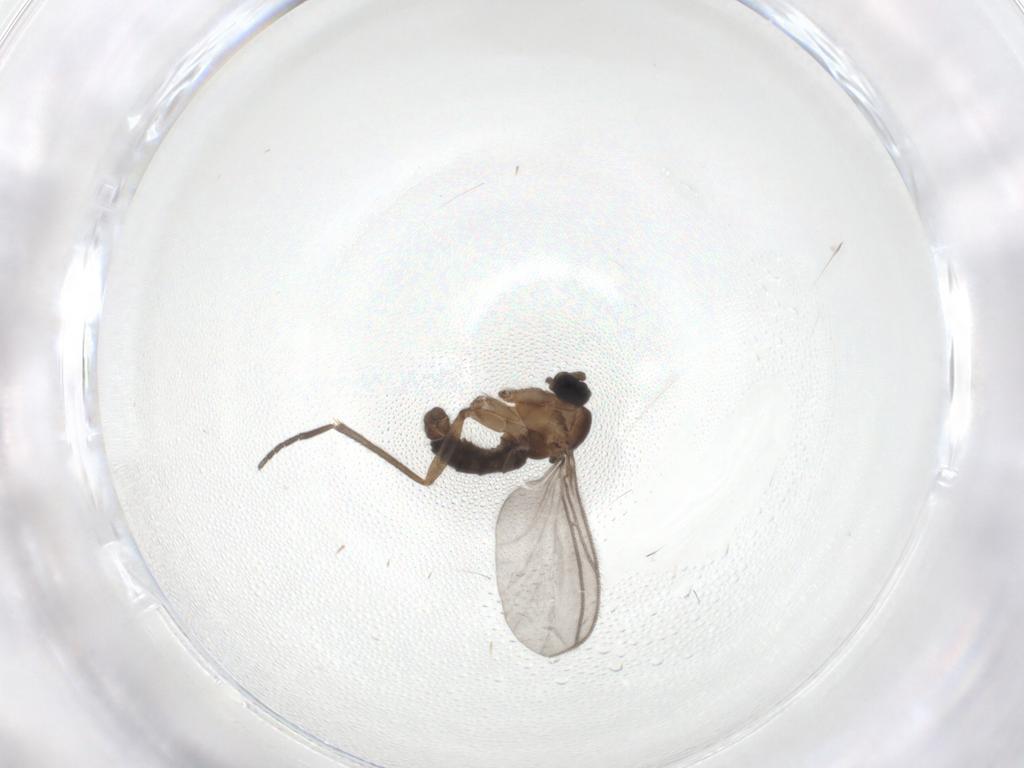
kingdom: Animalia
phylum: Arthropoda
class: Insecta
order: Diptera
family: Sciaridae
